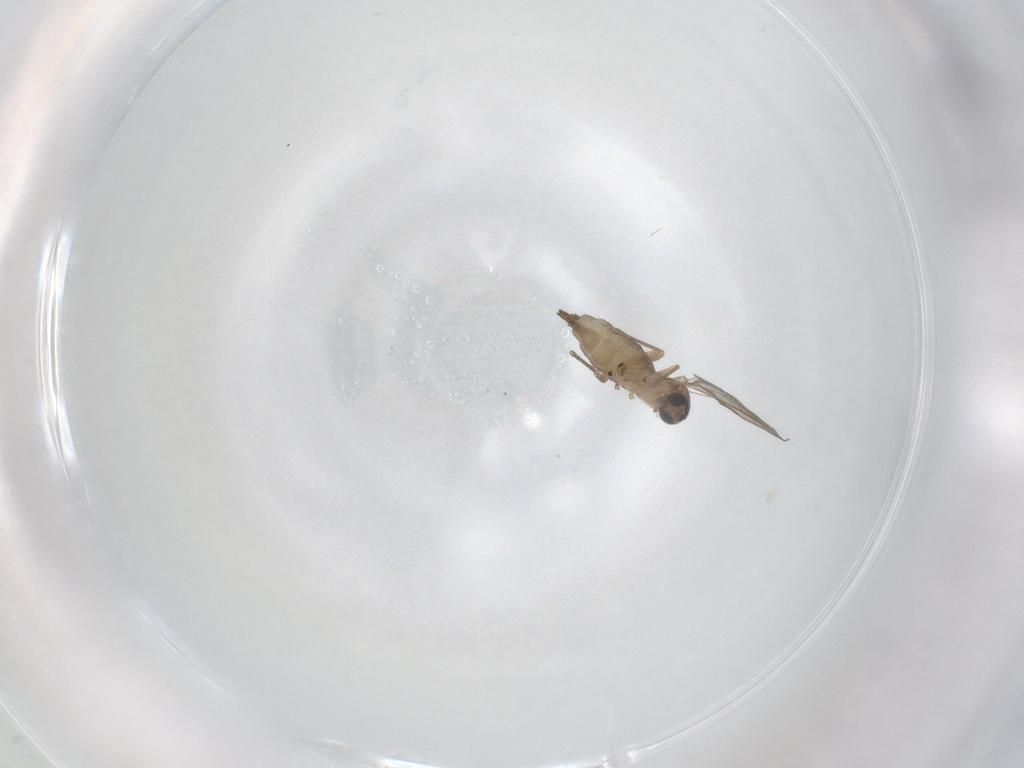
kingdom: Animalia
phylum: Arthropoda
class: Insecta
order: Diptera
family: Sciaridae
